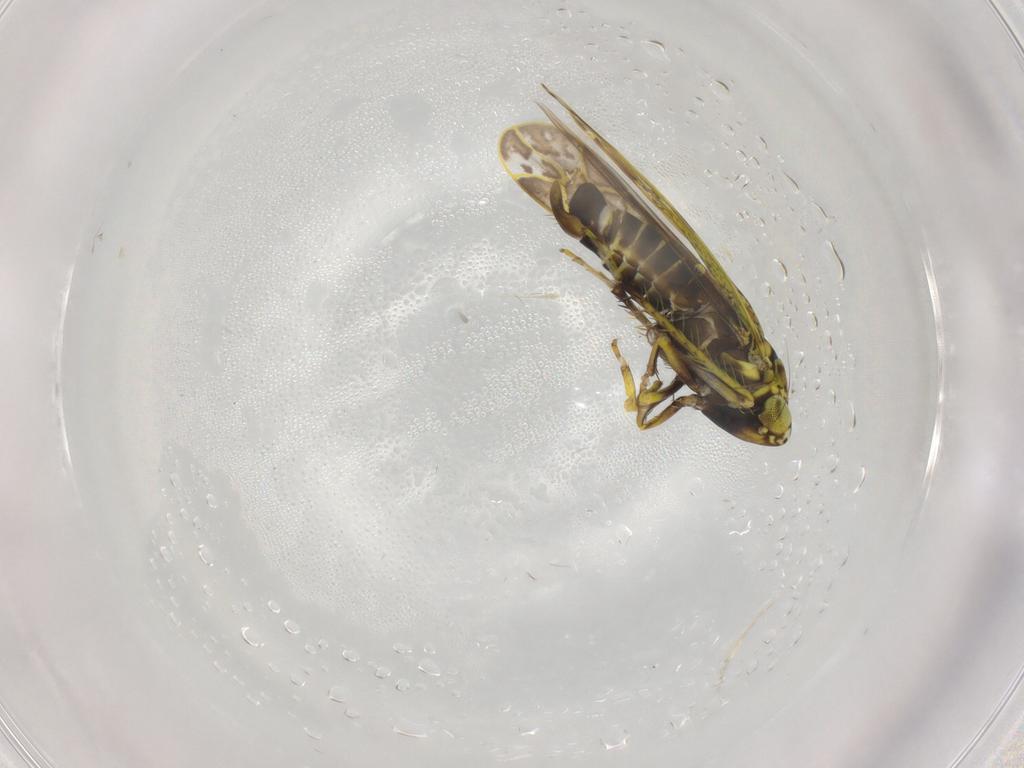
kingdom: Animalia
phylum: Arthropoda
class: Insecta
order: Hemiptera
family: Cicadellidae
